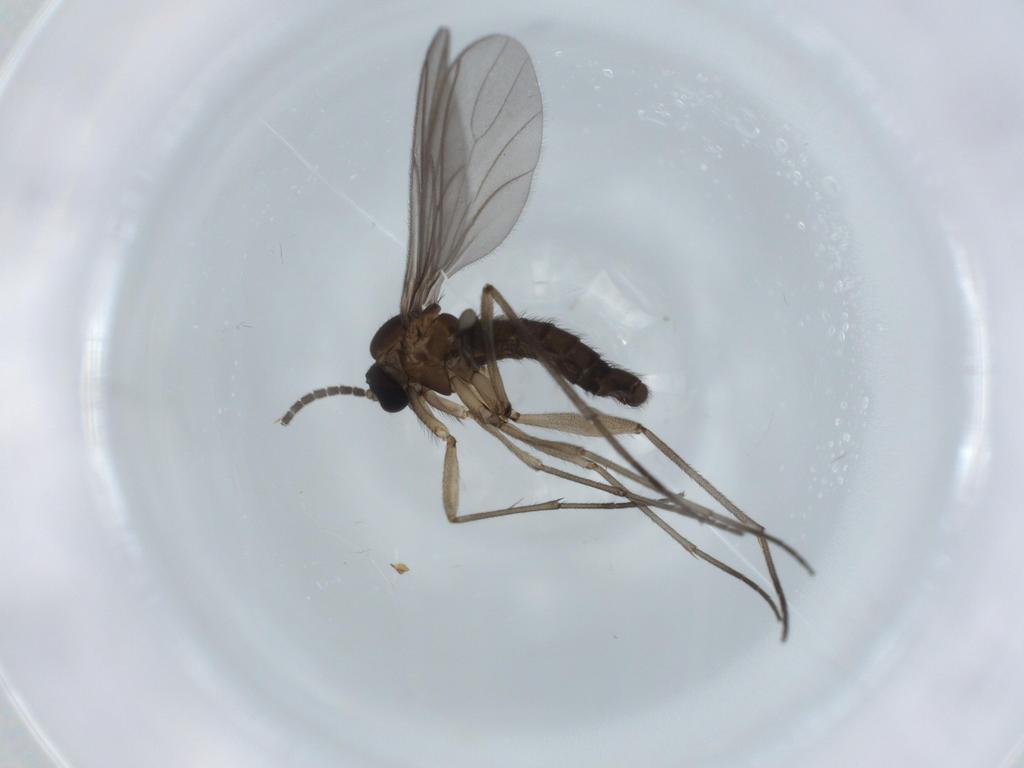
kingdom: Animalia
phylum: Arthropoda
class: Insecta
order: Diptera
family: Sciaridae
